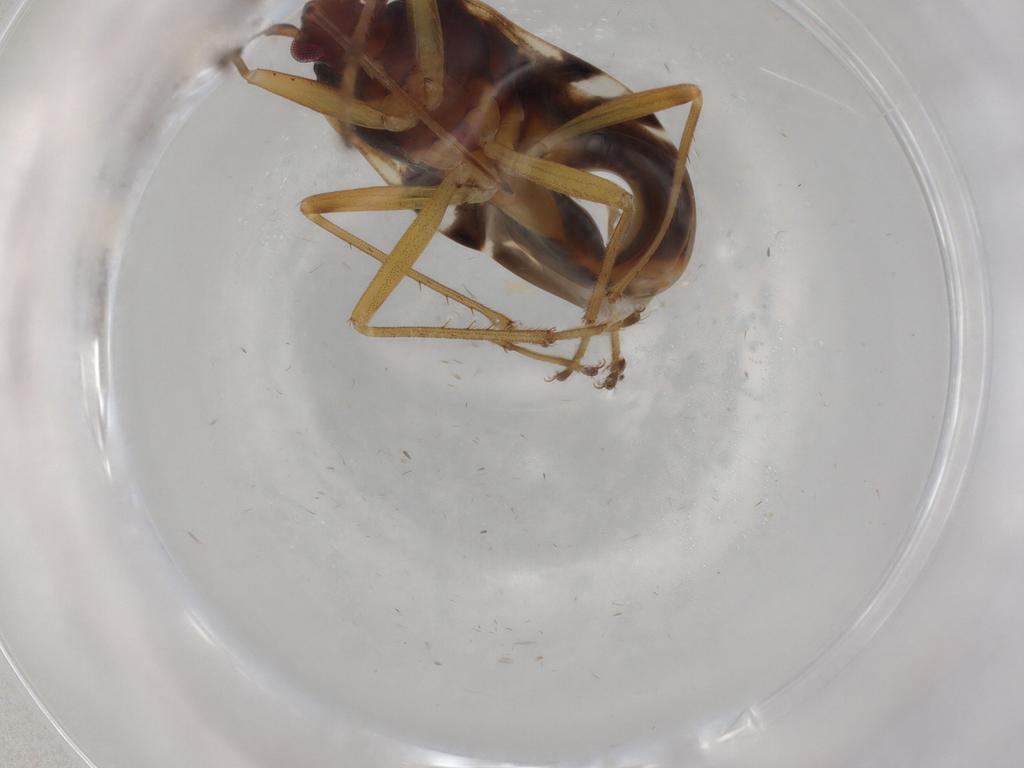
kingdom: Animalia
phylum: Arthropoda
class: Insecta
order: Hemiptera
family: Rhyparochromidae
